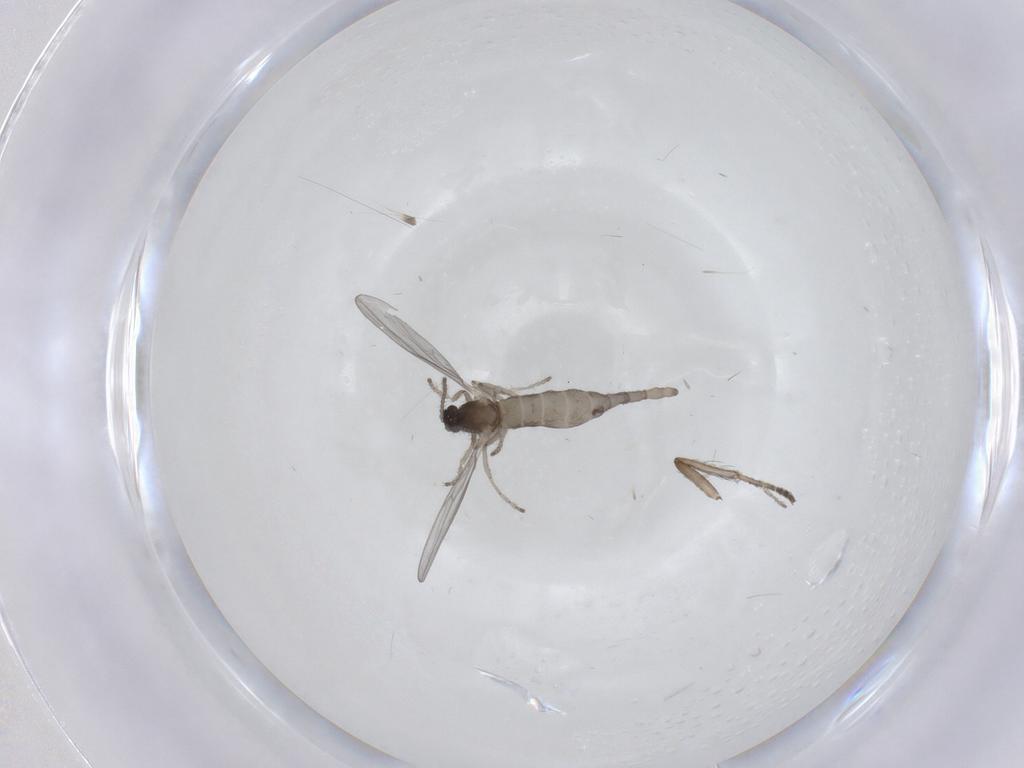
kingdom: Animalia
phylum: Arthropoda
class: Insecta
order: Diptera
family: Cecidomyiidae
